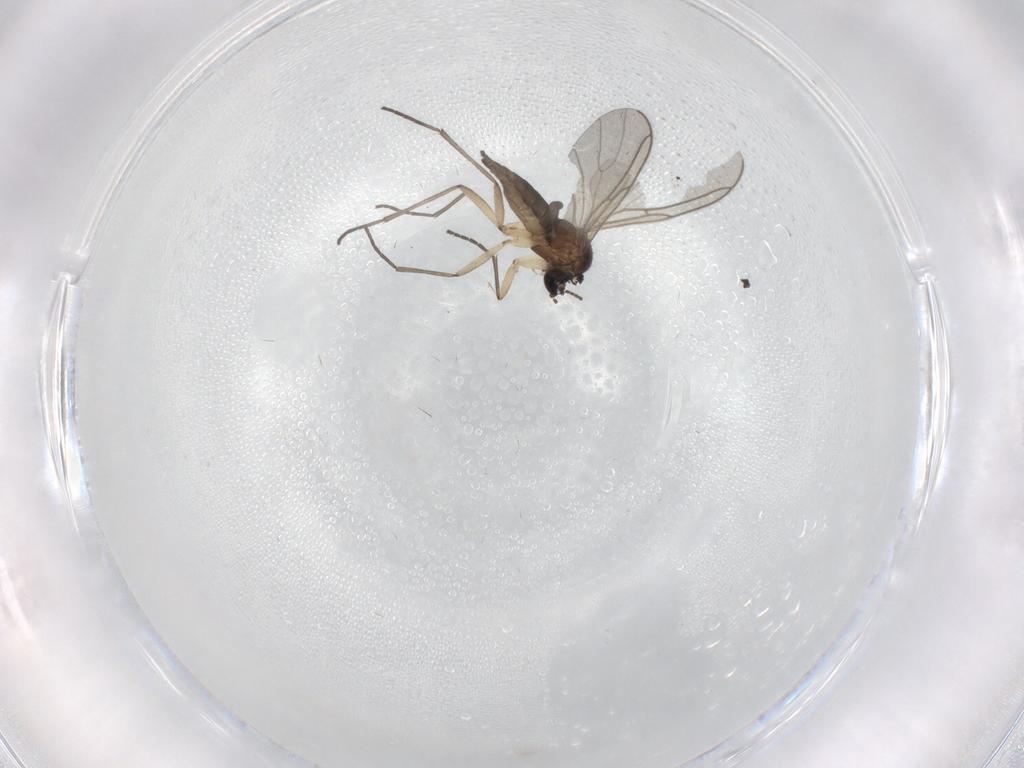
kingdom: Animalia
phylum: Arthropoda
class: Insecta
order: Diptera
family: Sciaridae
